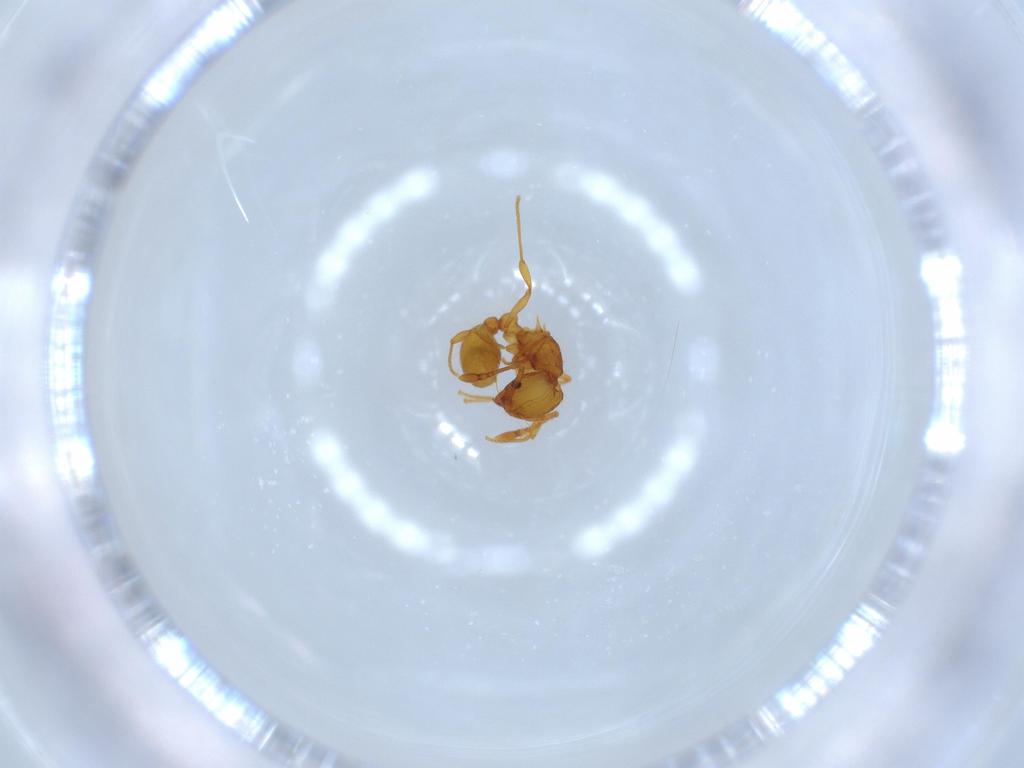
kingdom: Animalia
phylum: Arthropoda
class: Insecta
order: Hymenoptera
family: Formicidae
